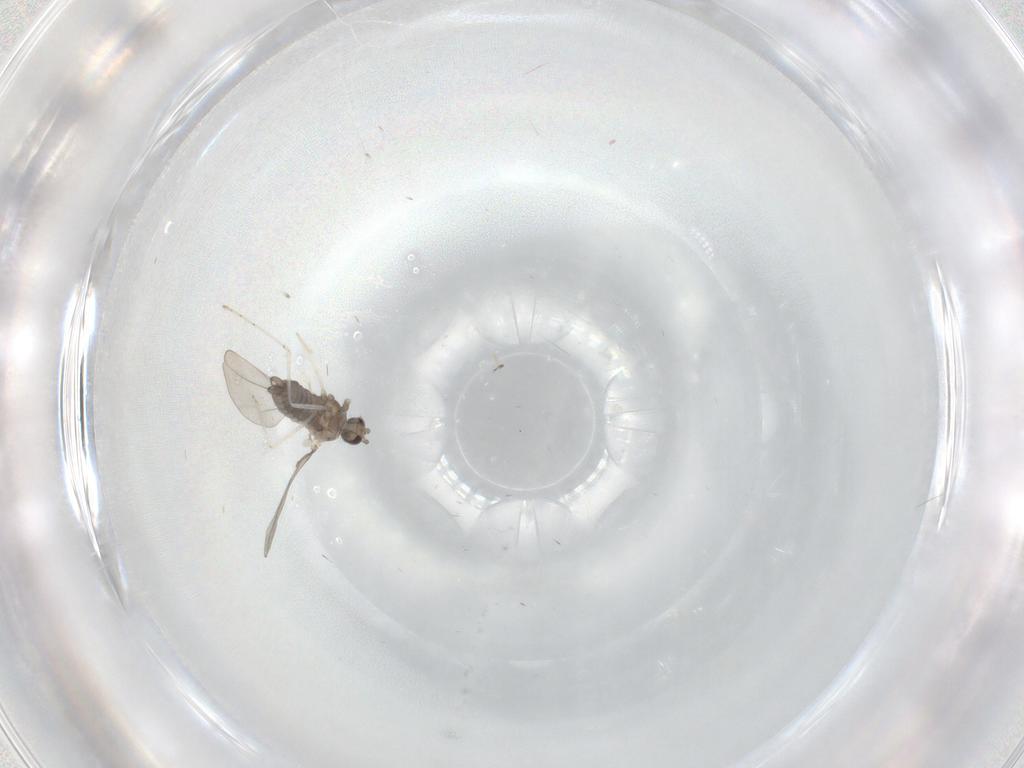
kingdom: Animalia
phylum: Arthropoda
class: Insecta
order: Diptera
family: Cecidomyiidae
